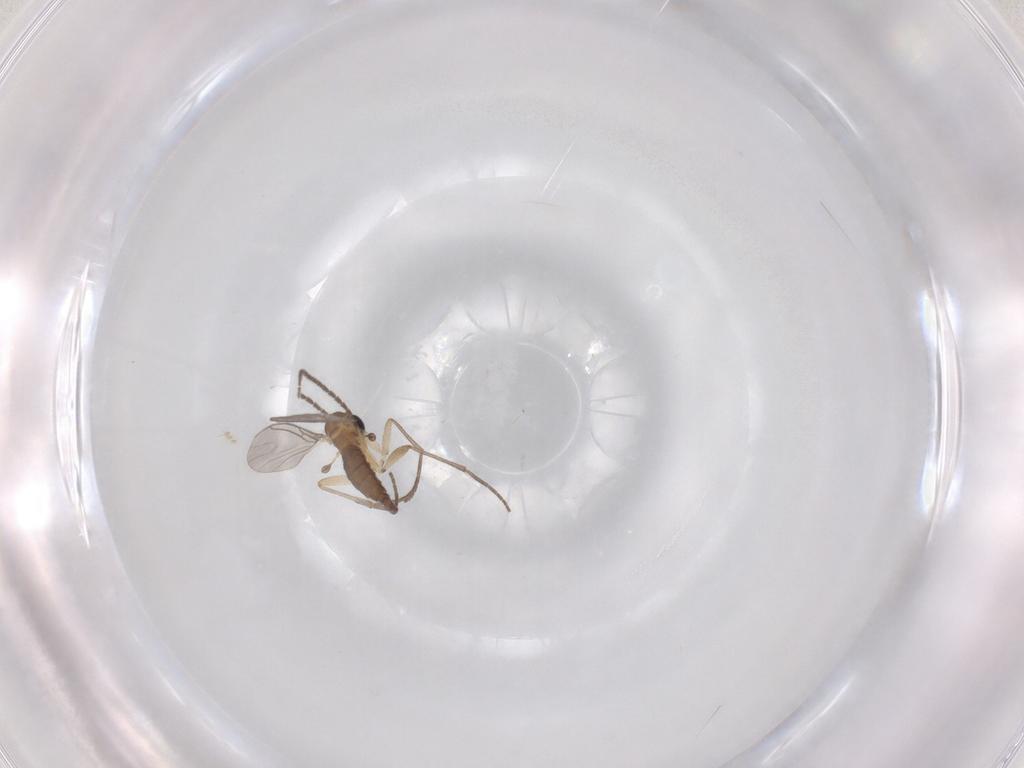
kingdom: Animalia
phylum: Arthropoda
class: Insecta
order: Diptera
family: Sciaridae
